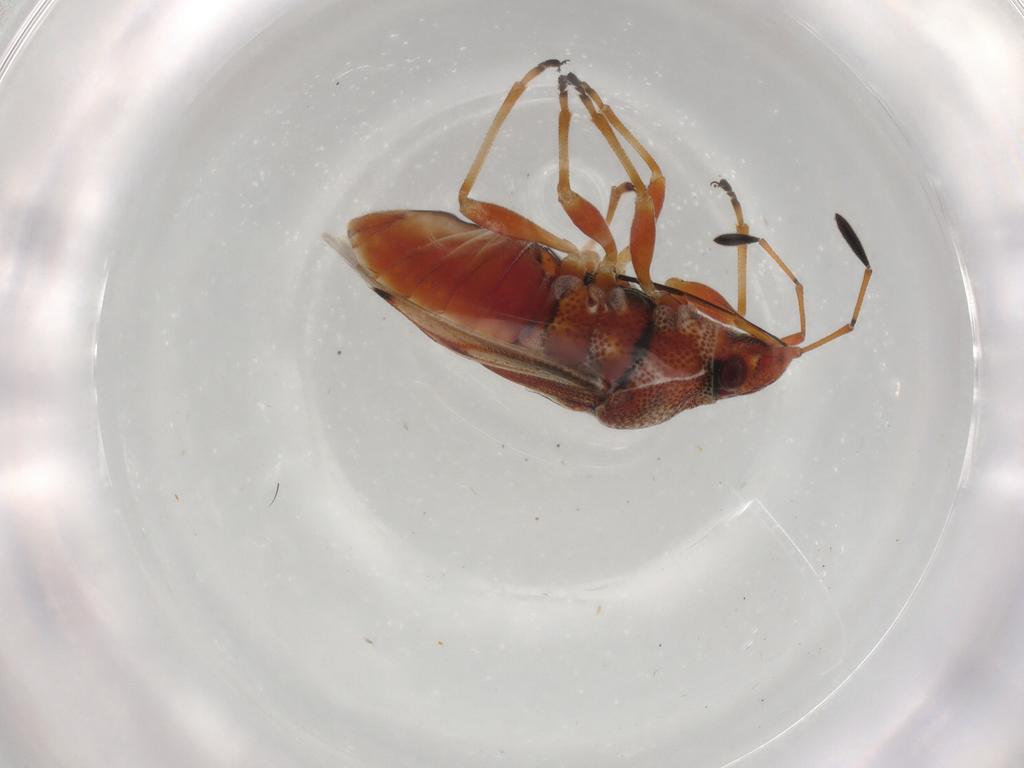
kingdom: Animalia
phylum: Arthropoda
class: Insecta
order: Hemiptera
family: Lygaeidae
